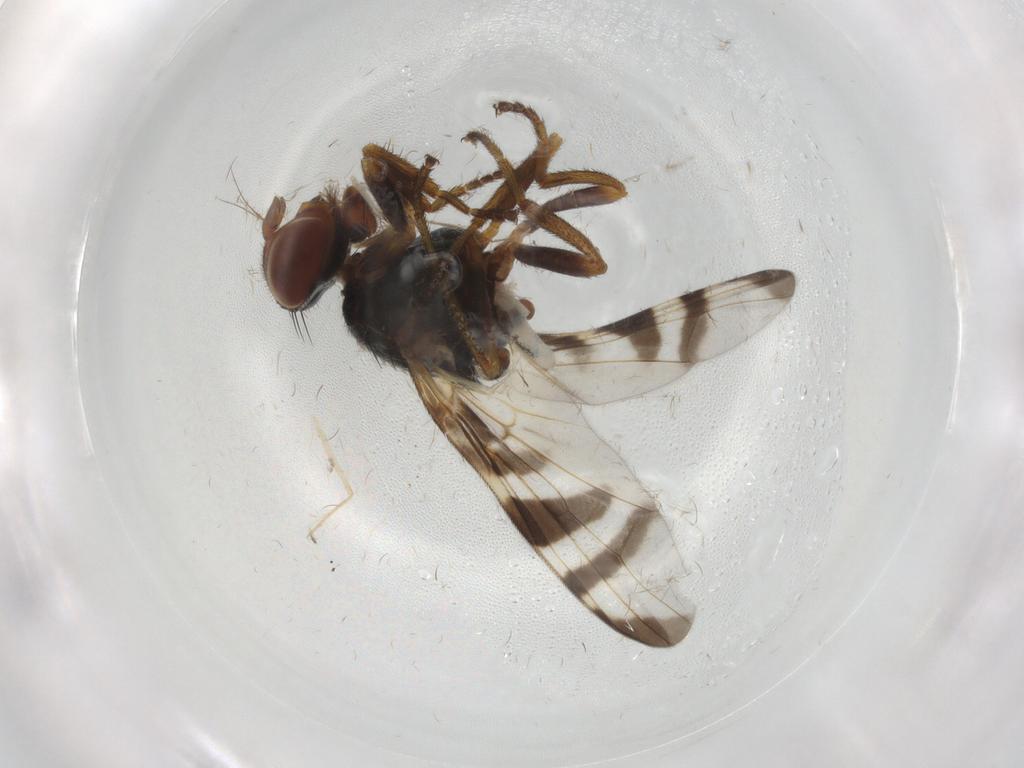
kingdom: Animalia
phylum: Arthropoda
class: Insecta
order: Diptera
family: Platystomatidae
